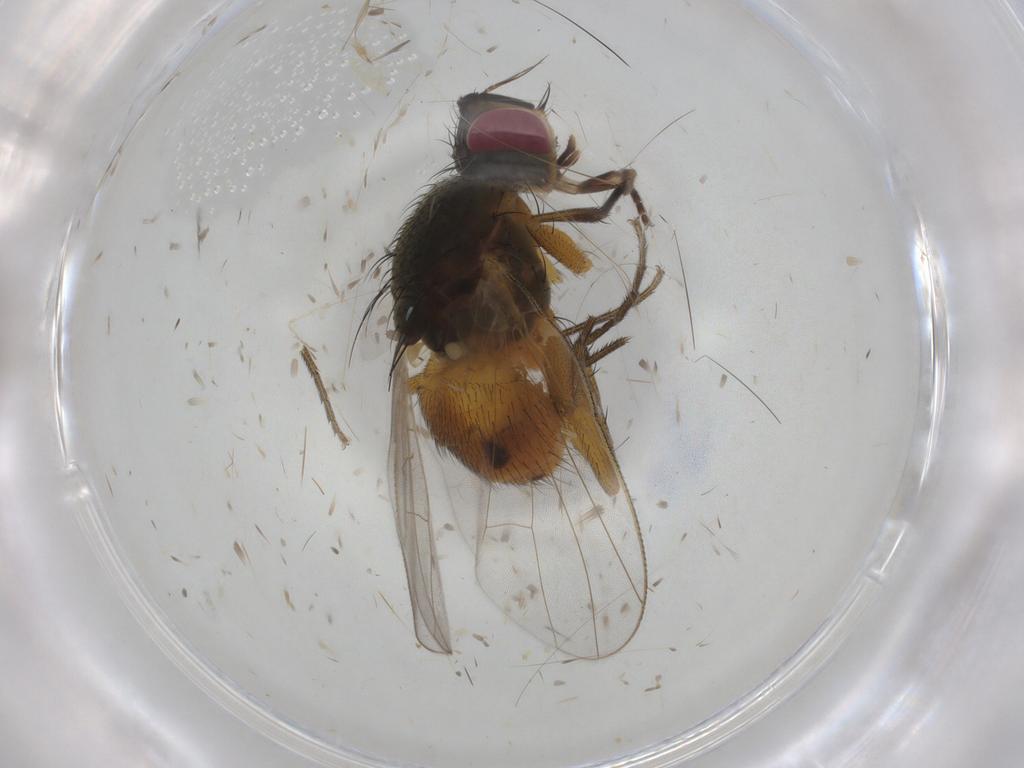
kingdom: Animalia
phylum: Arthropoda
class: Insecta
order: Diptera
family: Muscidae
